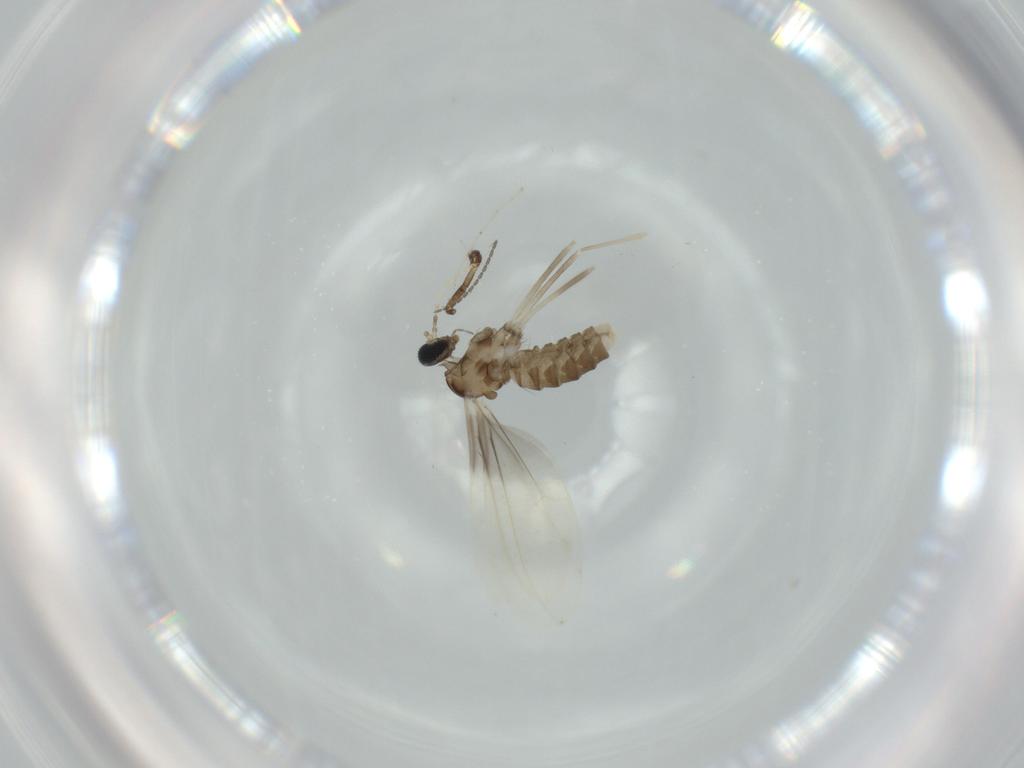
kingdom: Animalia
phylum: Arthropoda
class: Insecta
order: Diptera
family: Cecidomyiidae
